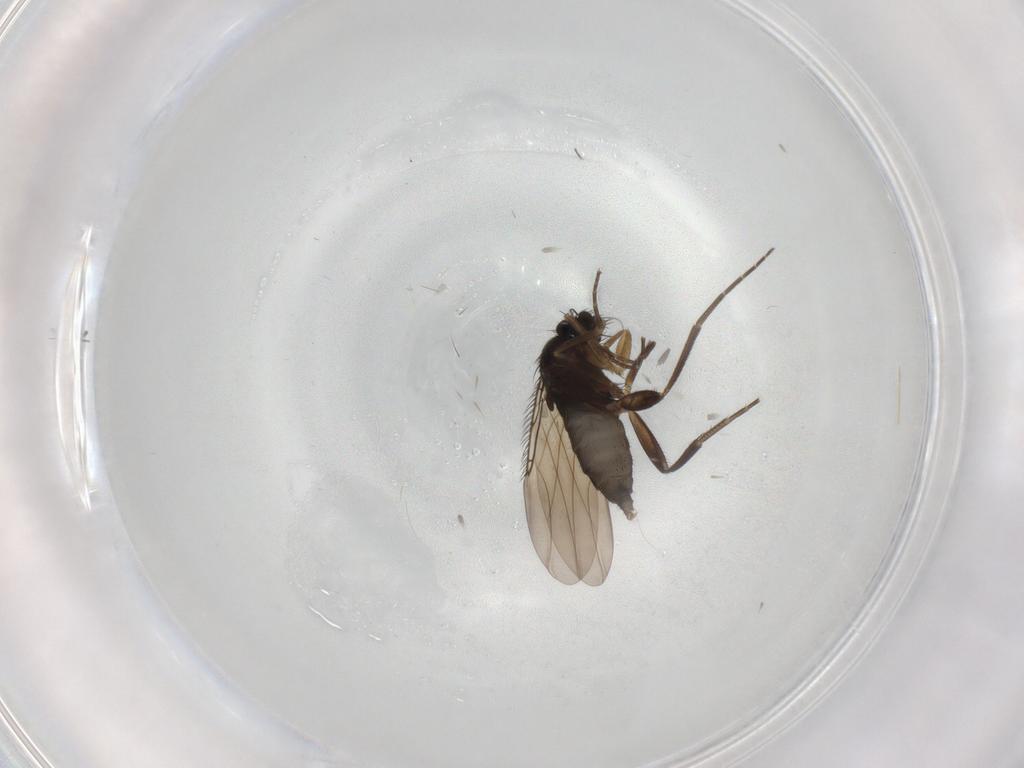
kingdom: Animalia
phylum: Arthropoda
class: Insecta
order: Diptera
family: Phoridae
